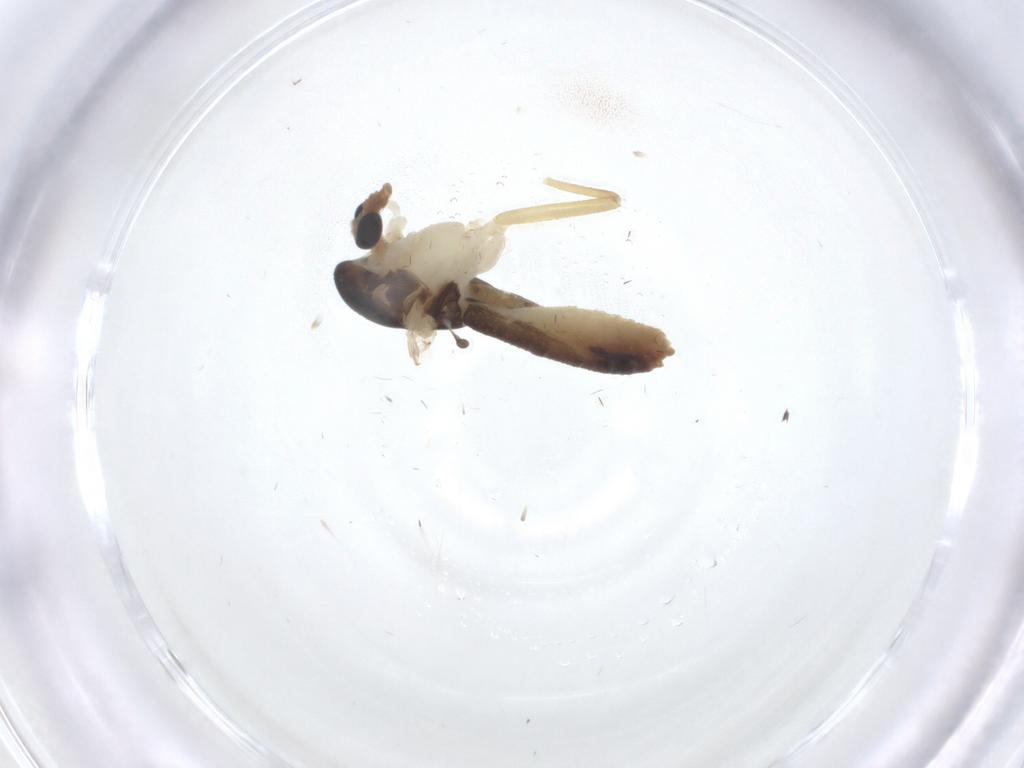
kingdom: Animalia
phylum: Arthropoda
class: Insecta
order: Diptera
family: Chironomidae
